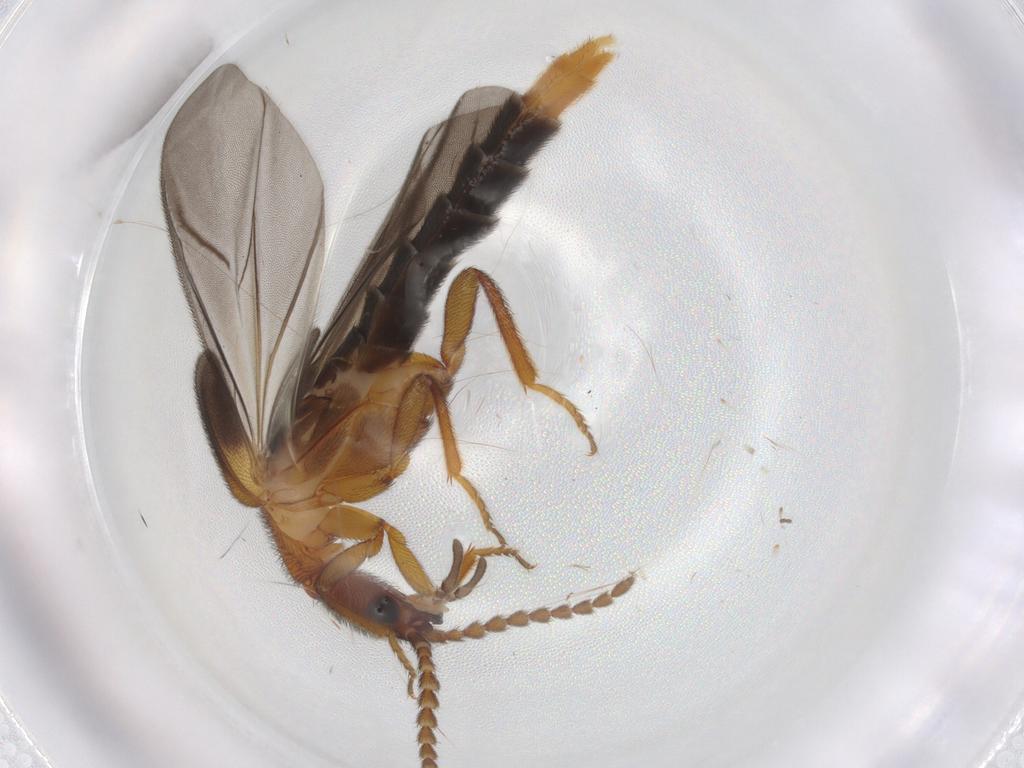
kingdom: Animalia
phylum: Arthropoda
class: Insecta
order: Coleoptera
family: Omethidae
